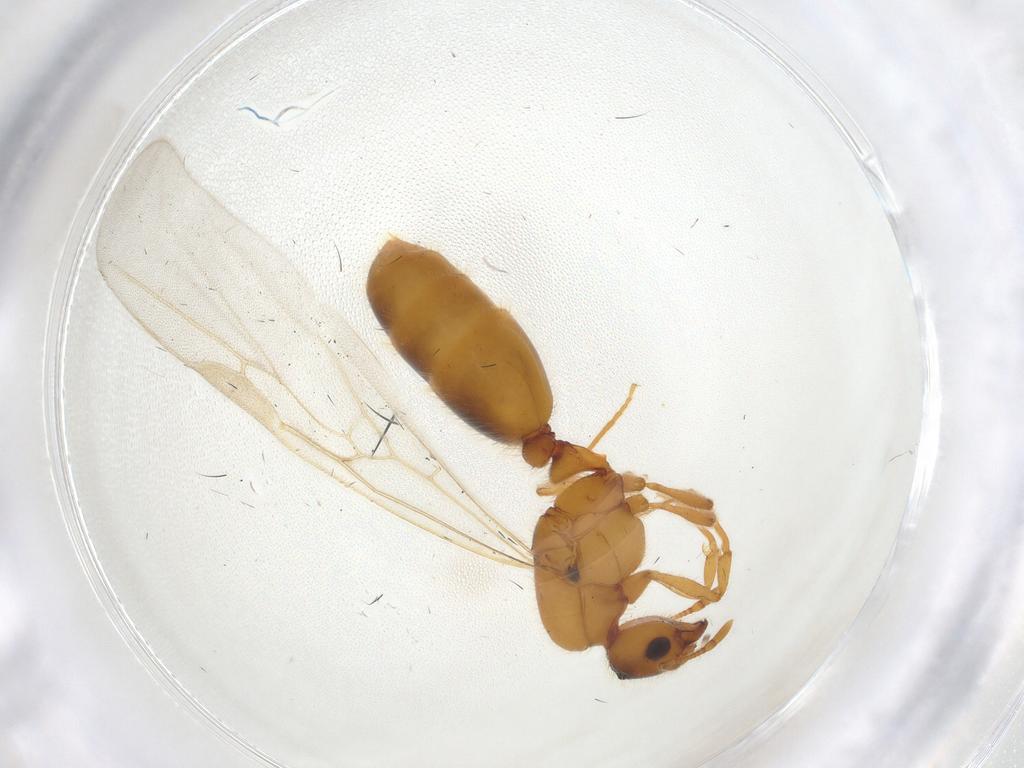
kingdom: Animalia
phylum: Arthropoda
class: Insecta
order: Hymenoptera
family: Formicidae
